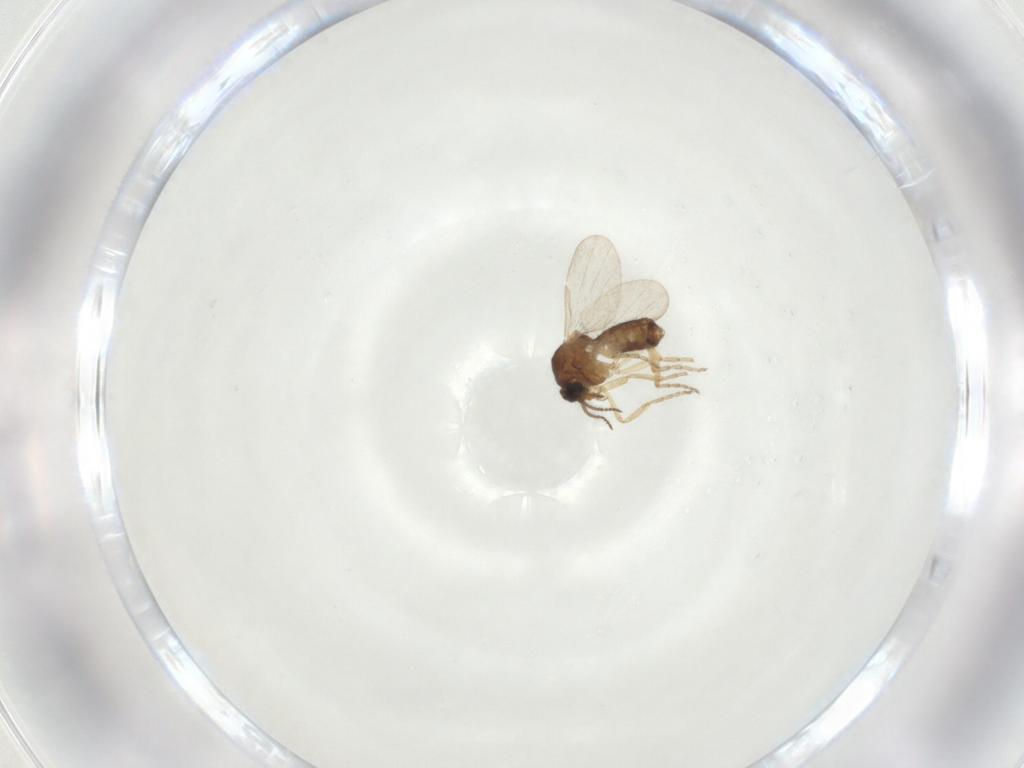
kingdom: Animalia
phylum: Arthropoda
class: Insecta
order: Diptera
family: Ceratopogonidae
